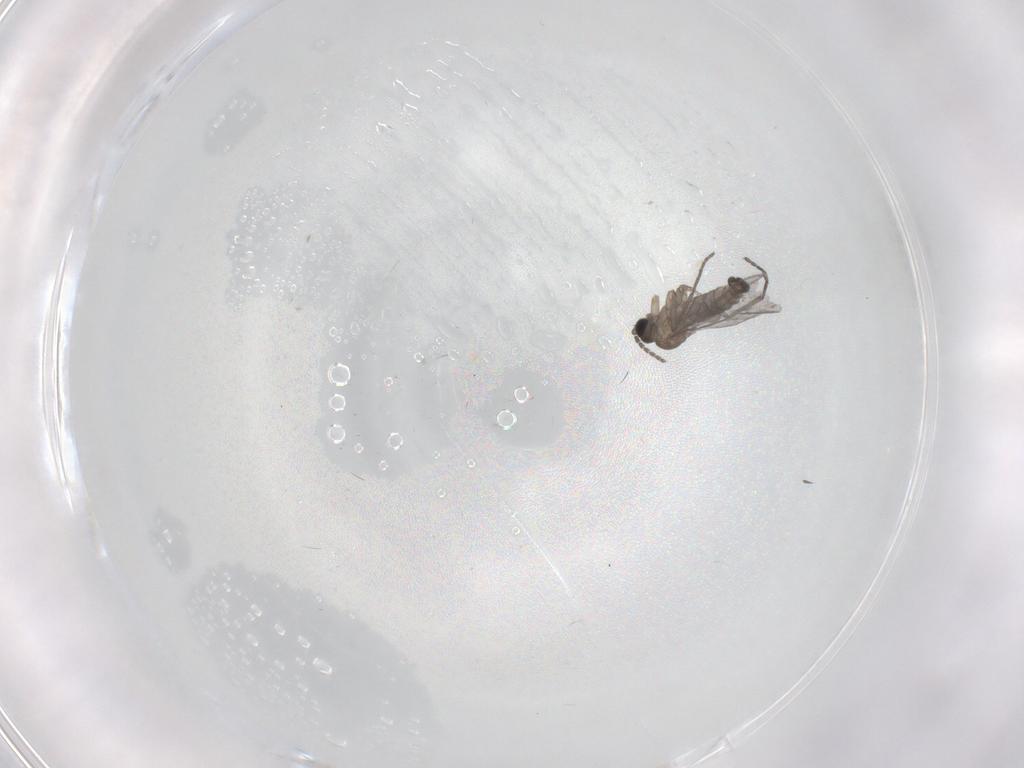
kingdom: Animalia
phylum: Arthropoda
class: Insecta
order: Diptera
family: Sciaridae
